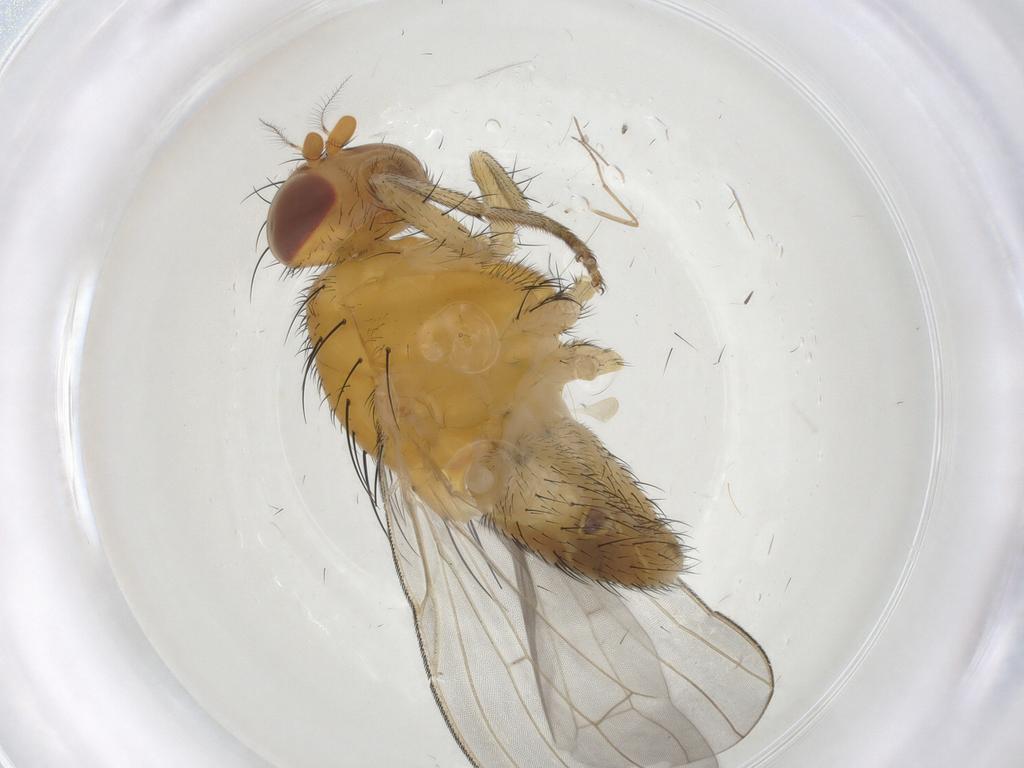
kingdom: Animalia
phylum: Arthropoda
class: Insecta
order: Diptera
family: Chironomidae
